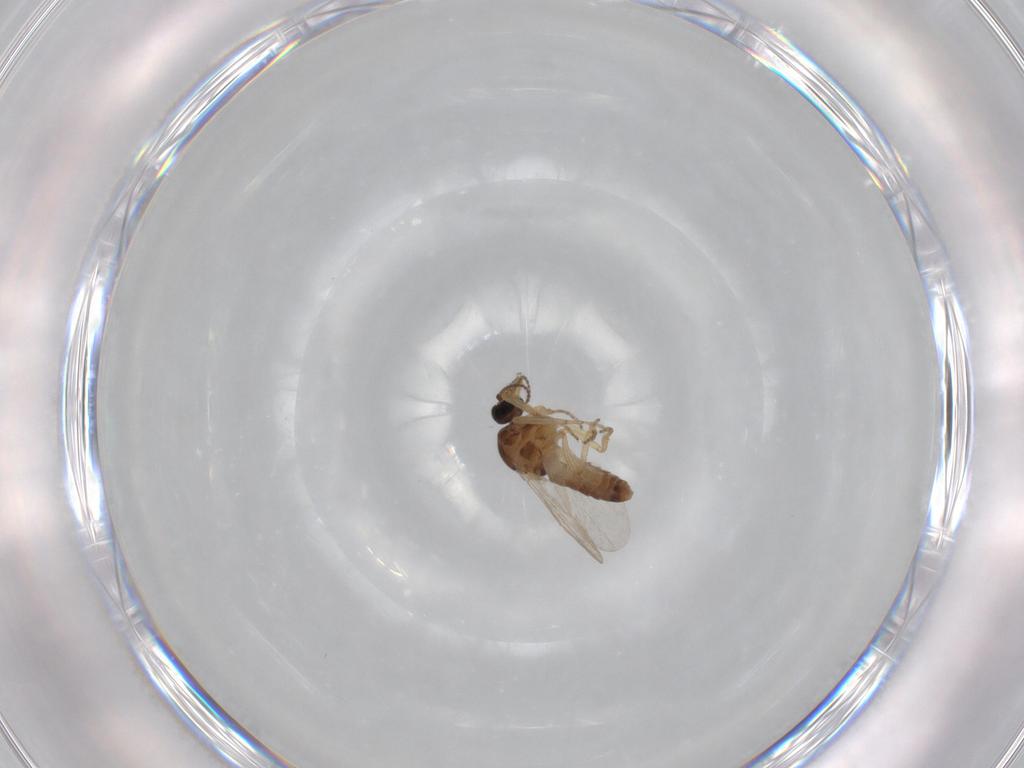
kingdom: Animalia
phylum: Arthropoda
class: Insecta
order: Diptera
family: Ceratopogonidae
